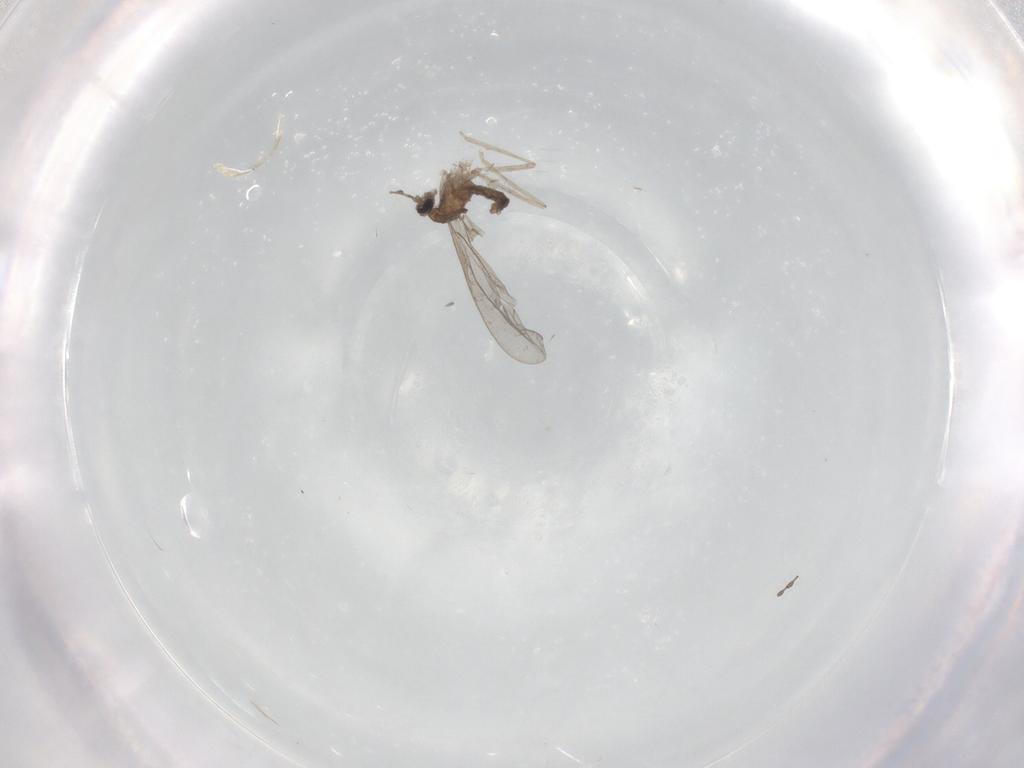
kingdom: Animalia
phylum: Arthropoda
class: Insecta
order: Diptera
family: Cecidomyiidae
